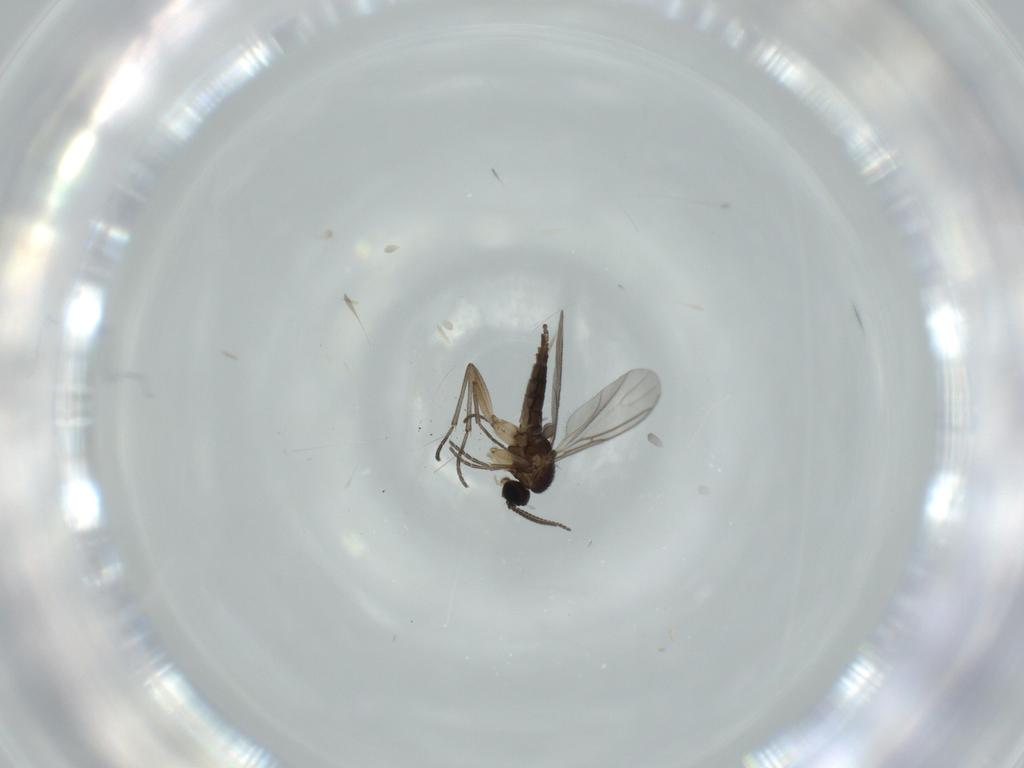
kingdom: Animalia
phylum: Arthropoda
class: Insecta
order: Diptera
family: Sciaridae
